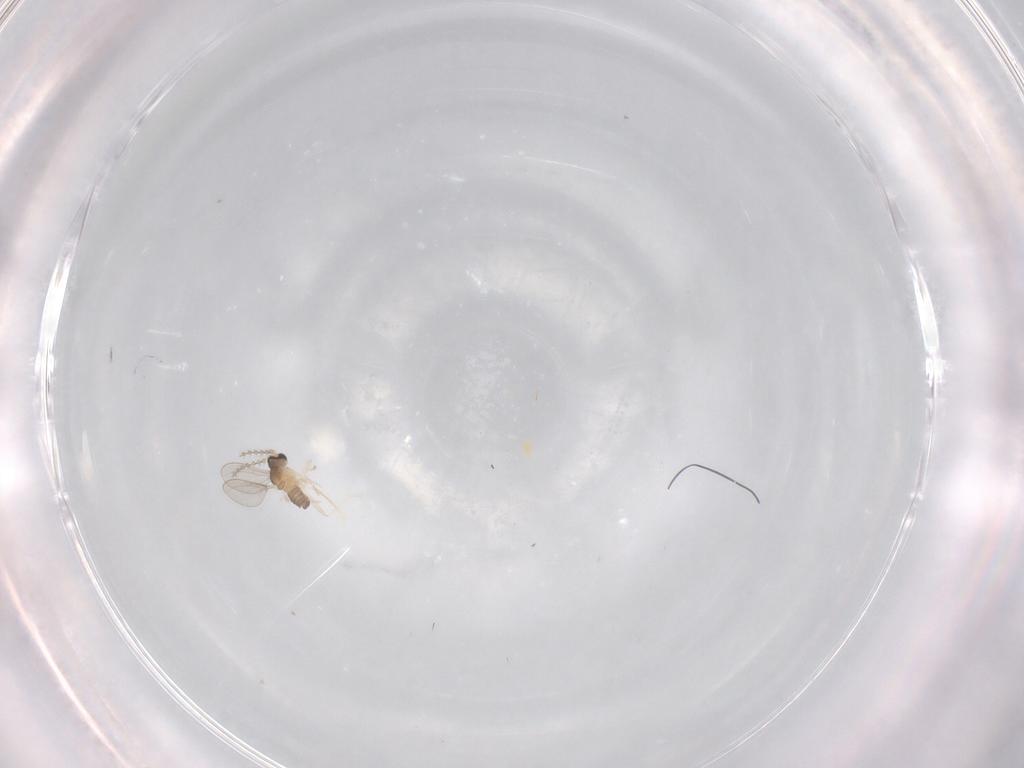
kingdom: Animalia
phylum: Arthropoda
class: Insecta
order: Diptera
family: Cecidomyiidae
